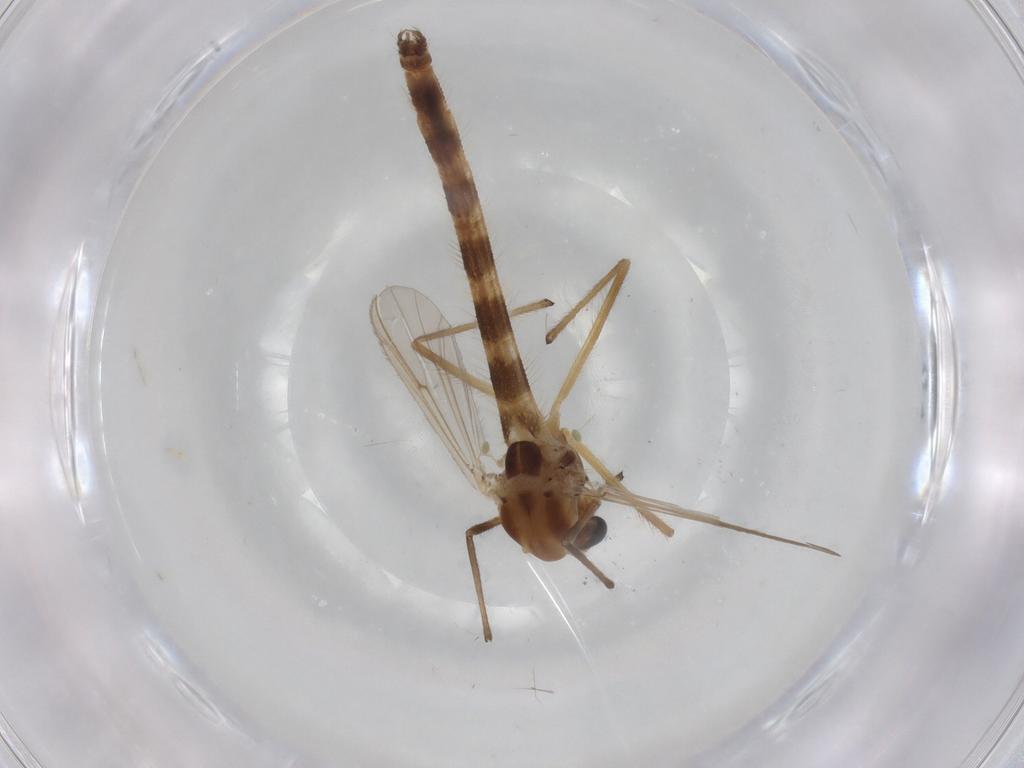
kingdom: Animalia
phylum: Arthropoda
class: Insecta
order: Diptera
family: Chironomidae
